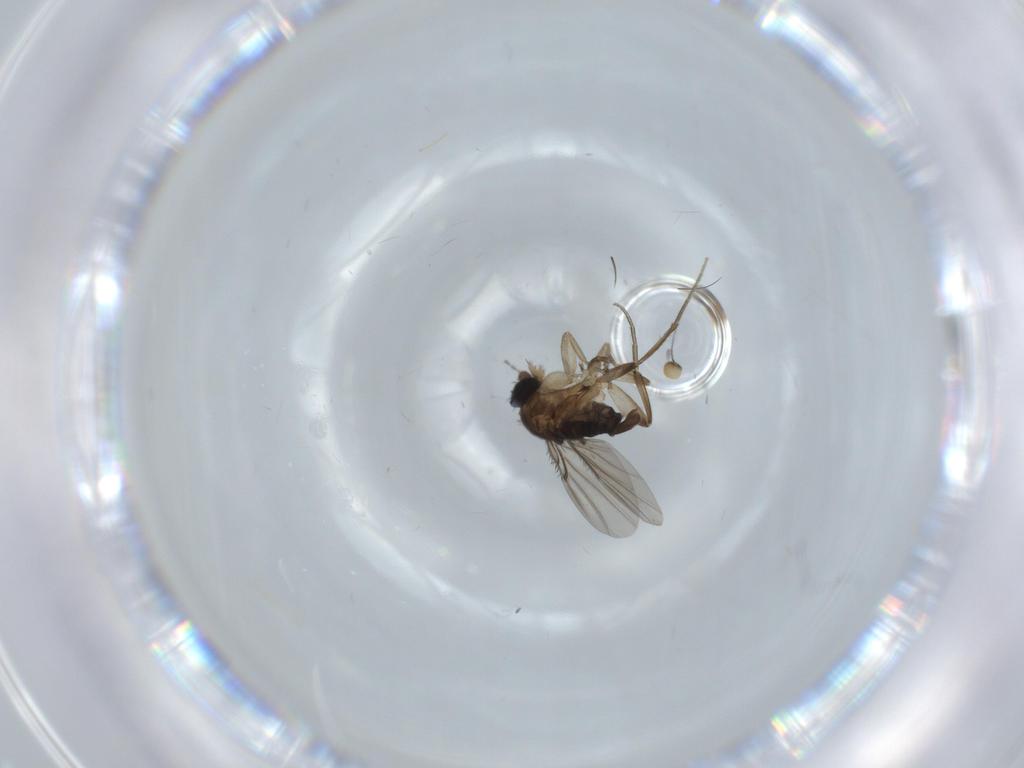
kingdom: Animalia
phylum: Arthropoda
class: Insecta
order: Diptera
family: Phoridae
